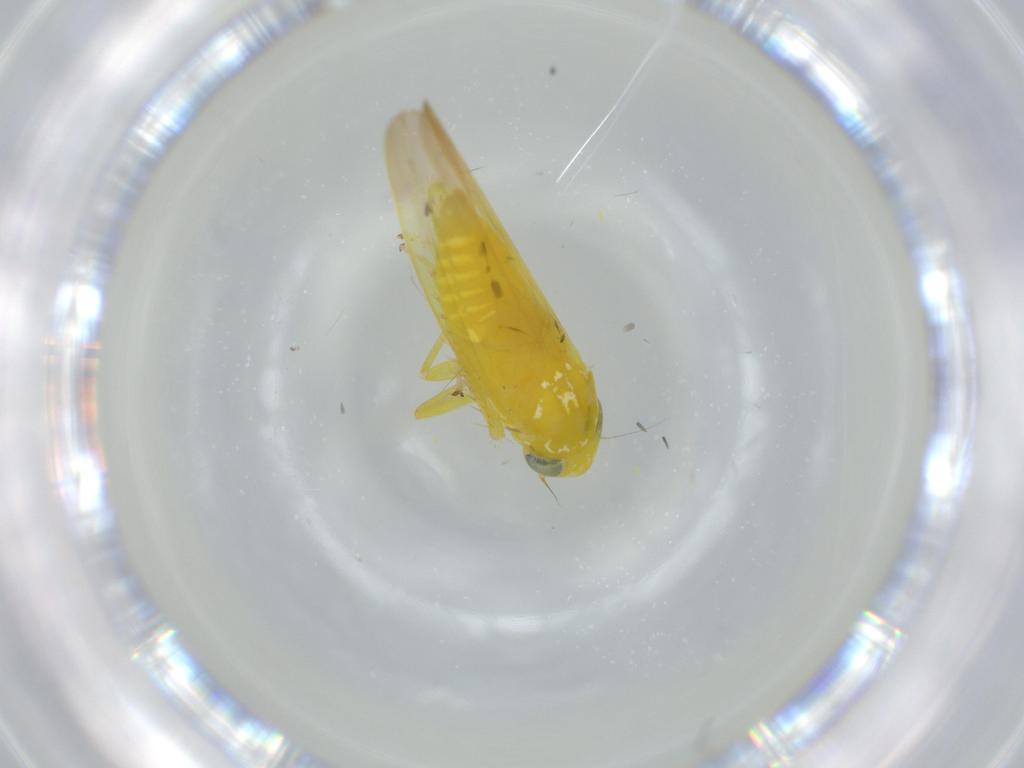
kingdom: Animalia
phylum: Arthropoda
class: Insecta
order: Hemiptera
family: Cicadellidae
